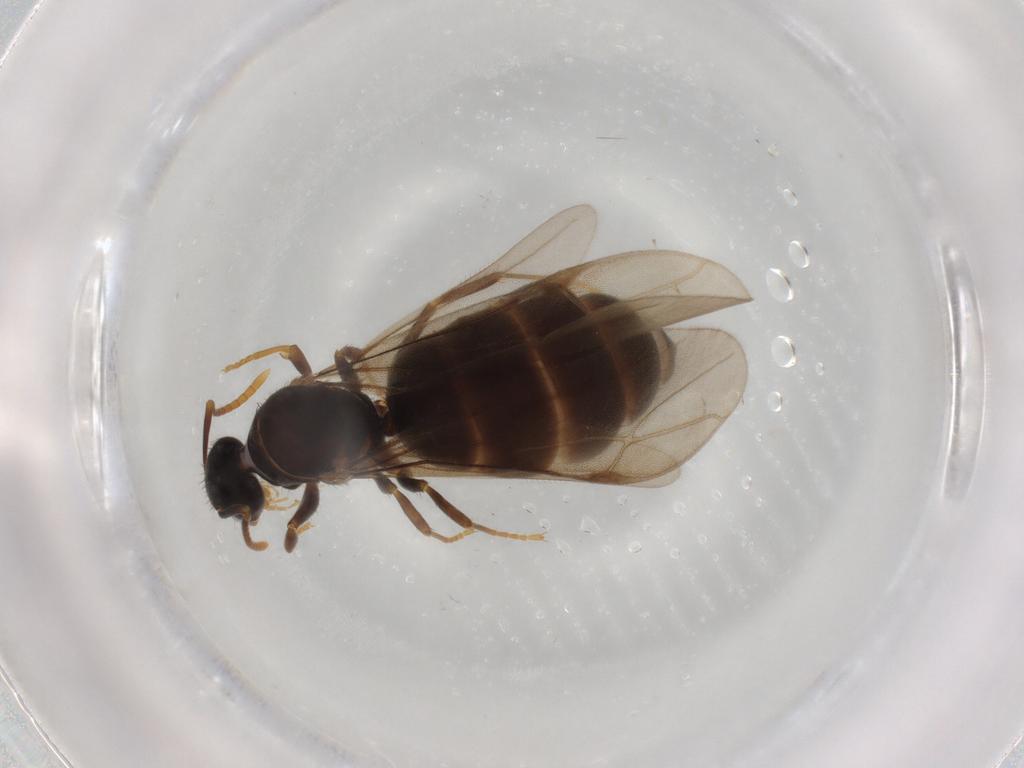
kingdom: Animalia
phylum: Arthropoda
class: Insecta
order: Hymenoptera
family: Formicidae
